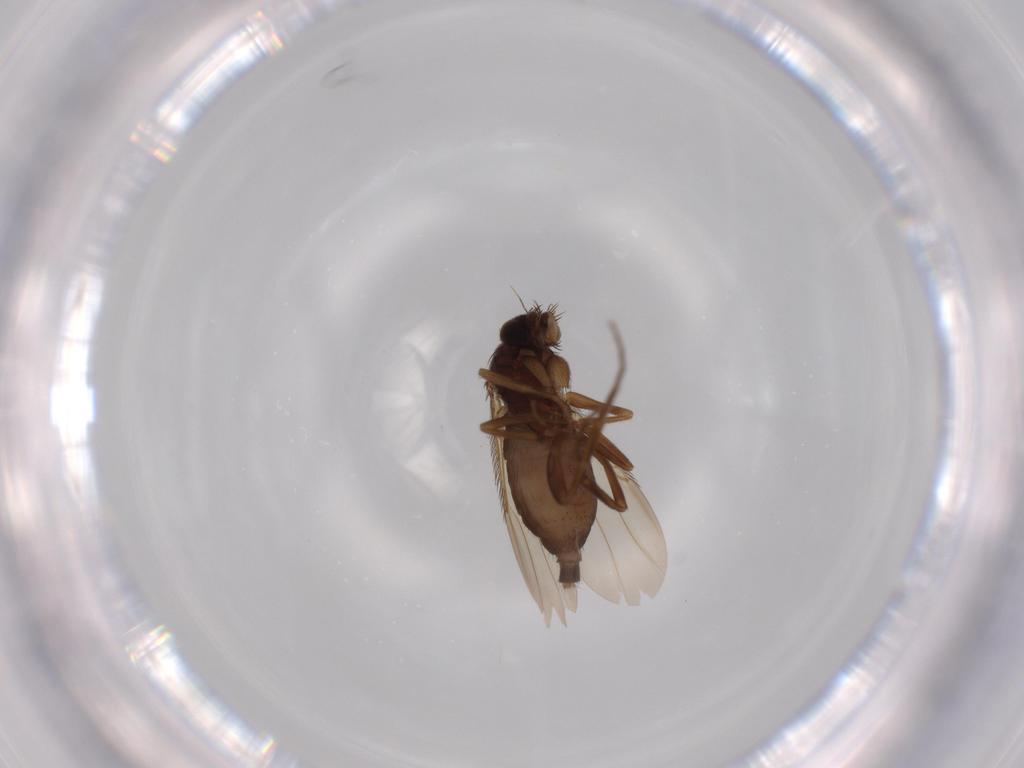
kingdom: Animalia
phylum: Arthropoda
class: Insecta
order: Diptera
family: Phoridae
